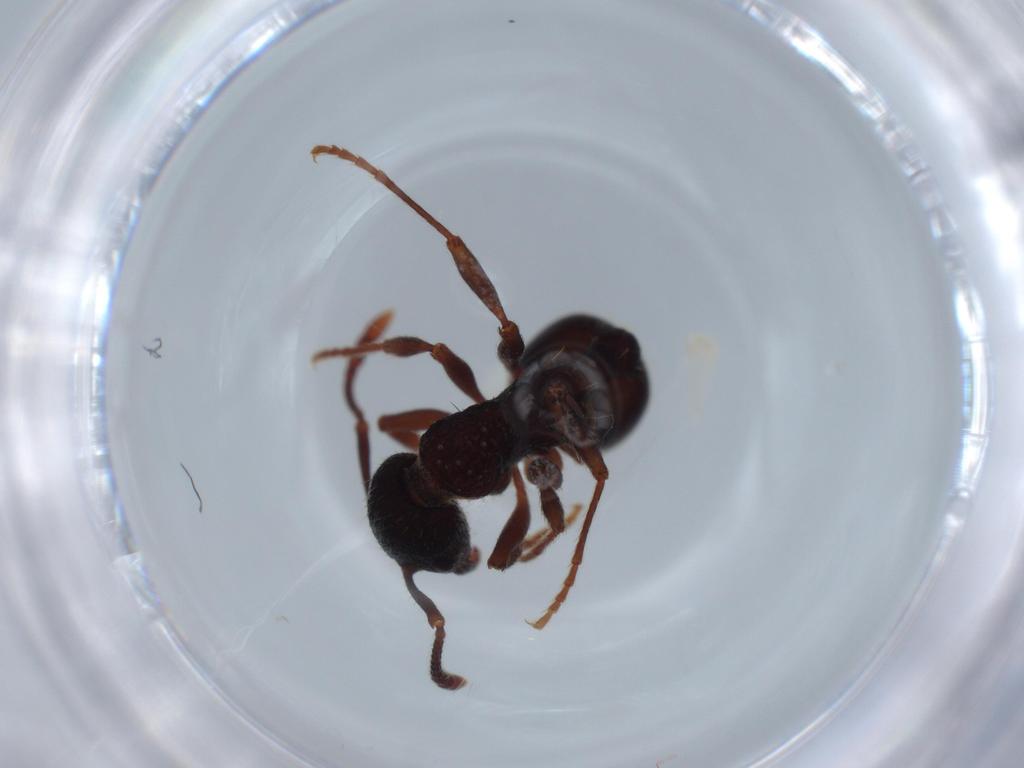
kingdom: Animalia
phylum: Arthropoda
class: Insecta
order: Hymenoptera
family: Formicidae
